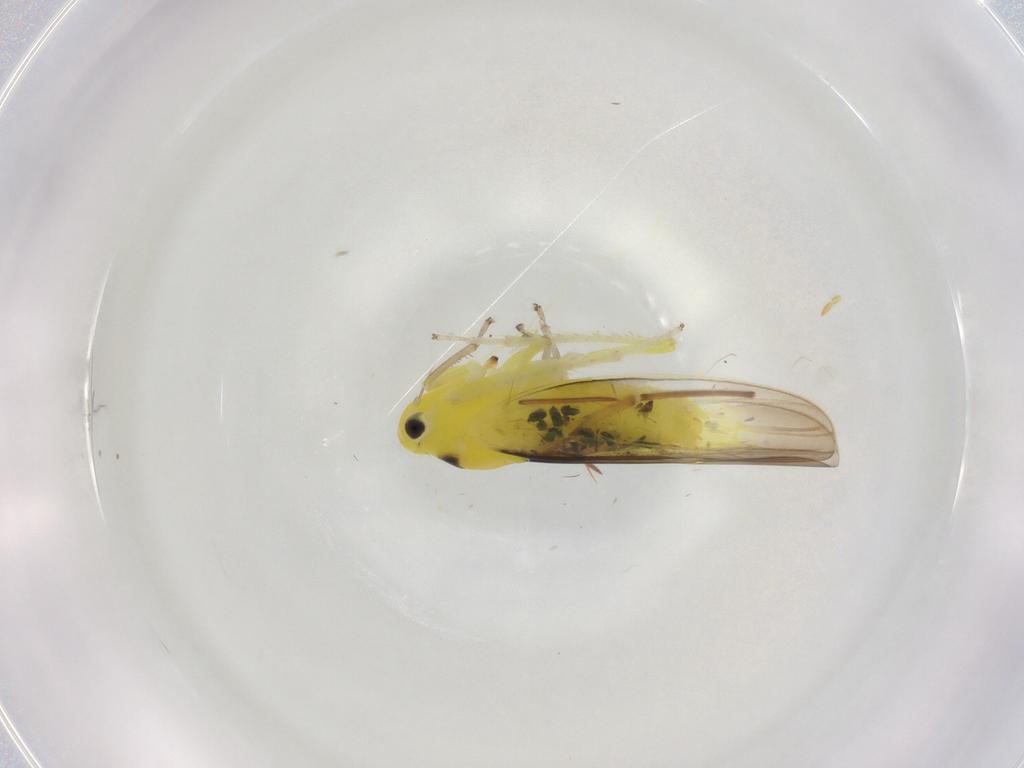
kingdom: Animalia
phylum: Arthropoda
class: Insecta
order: Hemiptera
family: Cicadellidae
